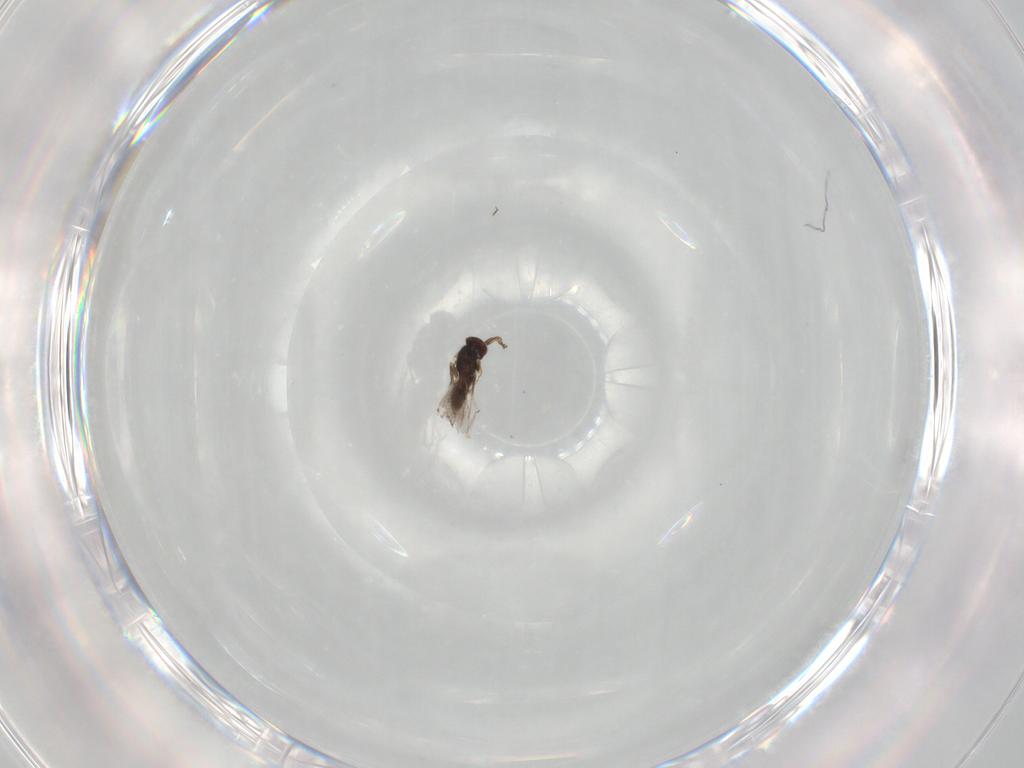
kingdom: Animalia
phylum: Arthropoda
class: Insecta
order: Hymenoptera
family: Mymaridae
